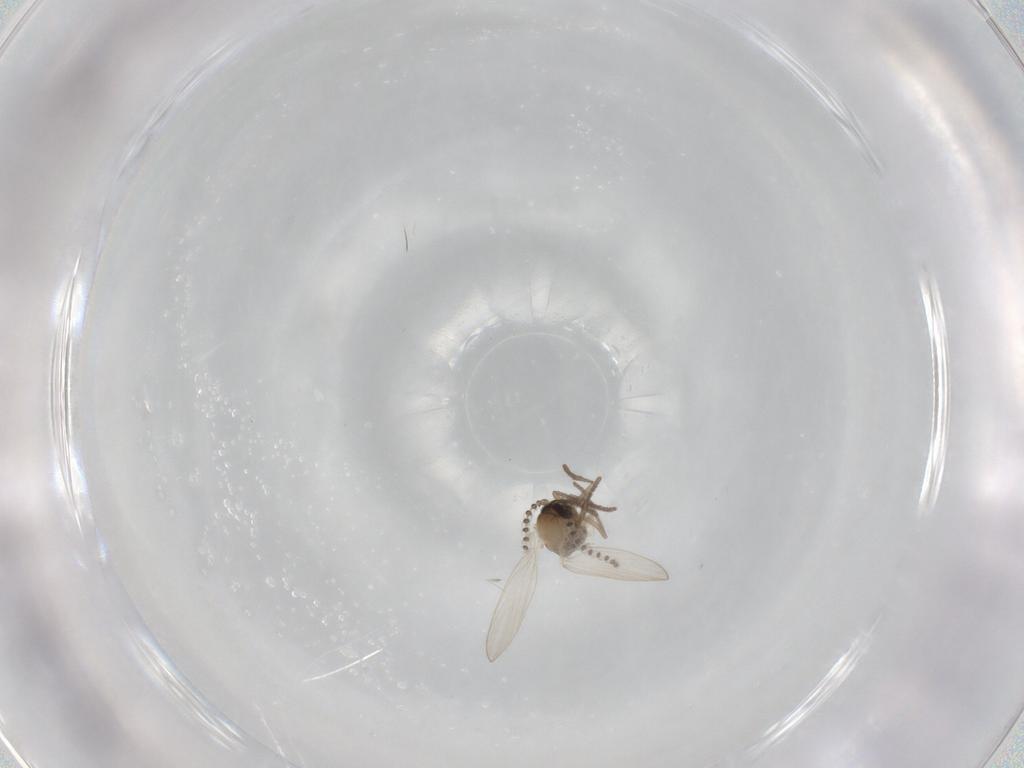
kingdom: Animalia
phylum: Arthropoda
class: Insecta
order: Diptera
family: Psychodidae
